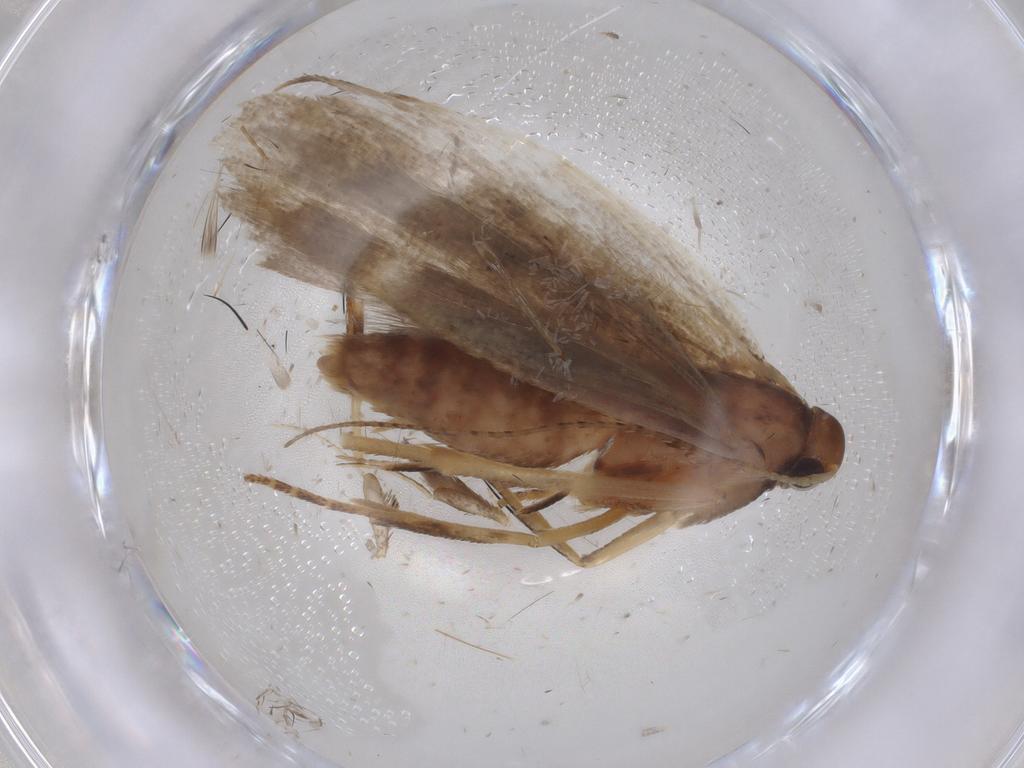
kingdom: Animalia
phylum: Arthropoda
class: Insecta
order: Lepidoptera
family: Gelechiidae
